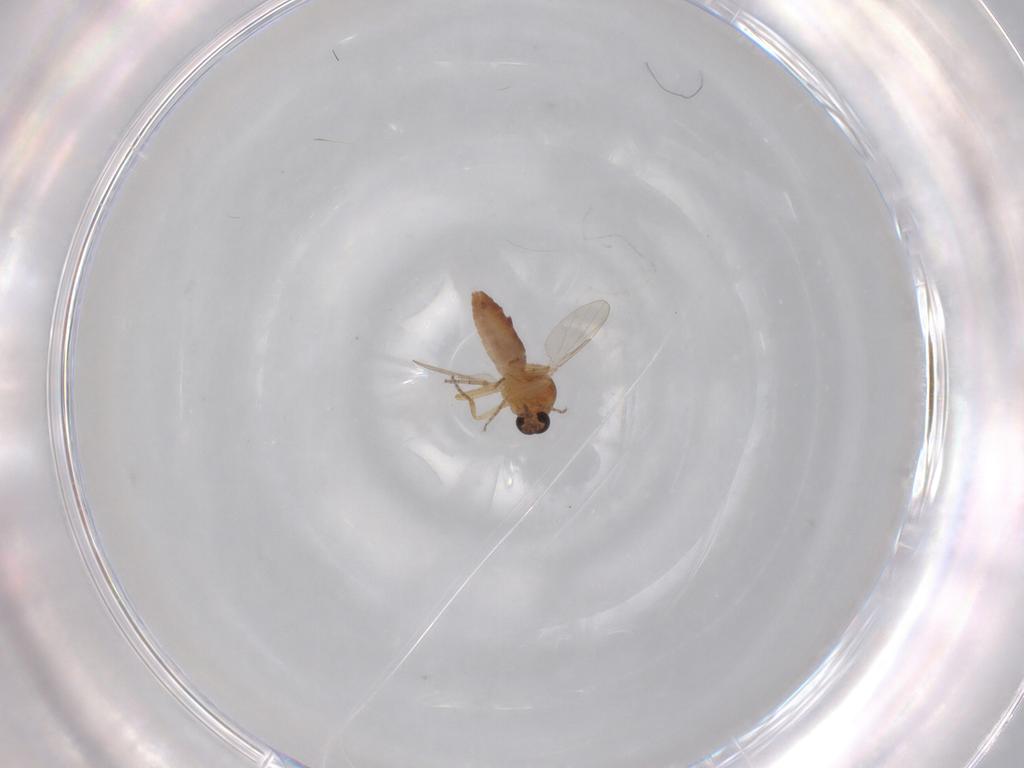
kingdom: Animalia
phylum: Arthropoda
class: Insecta
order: Diptera
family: Ceratopogonidae
